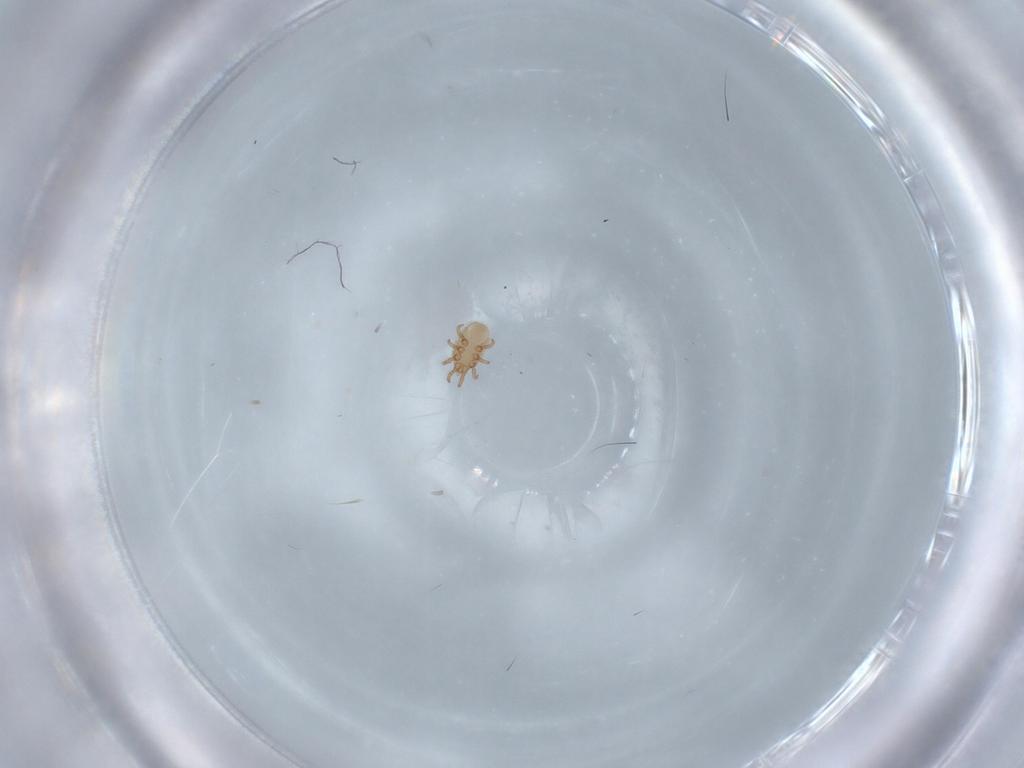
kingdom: Animalia
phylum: Arthropoda
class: Arachnida
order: Mesostigmata
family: Dinychidae
